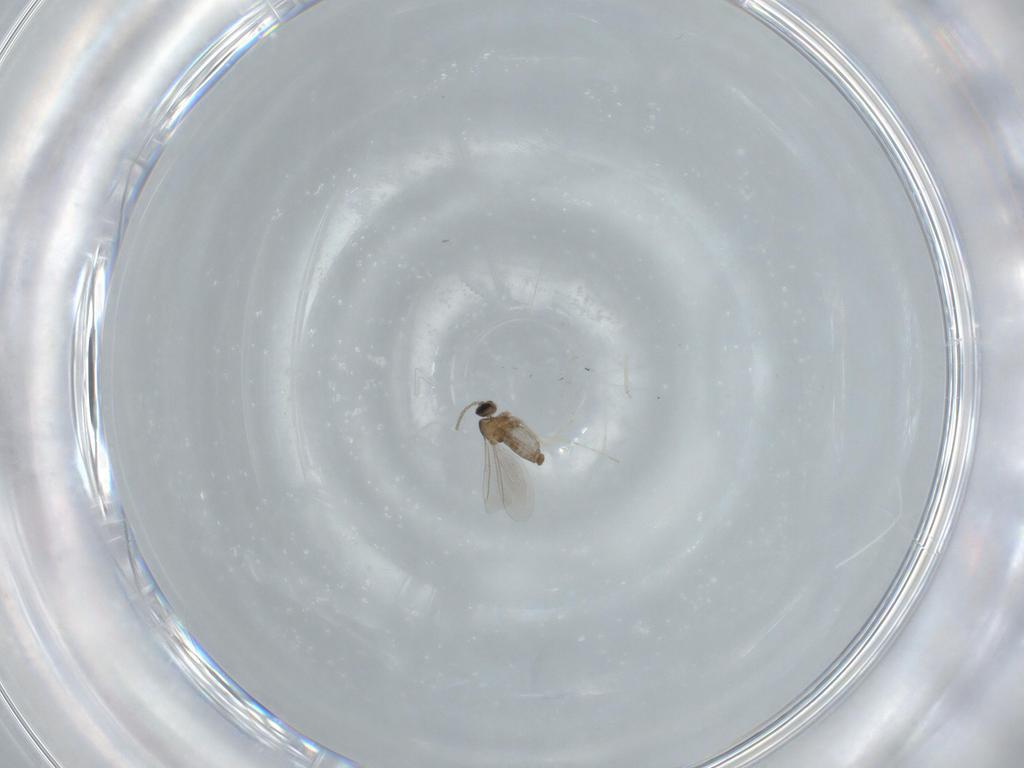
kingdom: Animalia
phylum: Arthropoda
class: Insecta
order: Diptera
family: Cecidomyiidae
